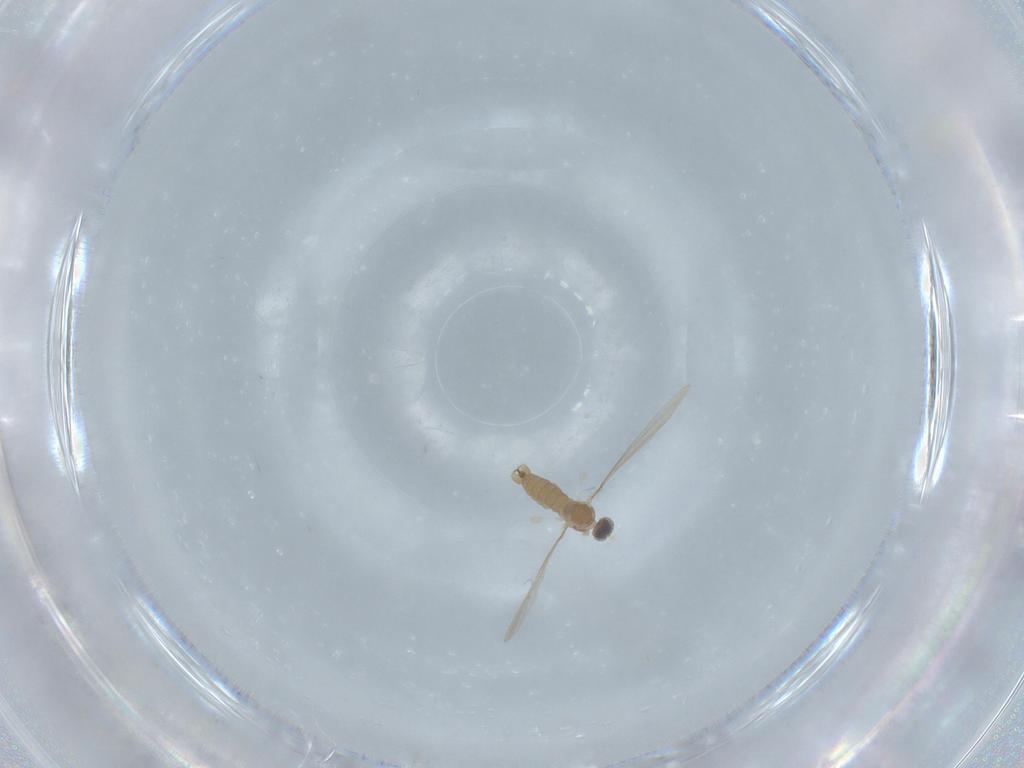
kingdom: Animalia
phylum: Arthropoda
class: Insecta
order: Diptera
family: Cecidomyiidae
